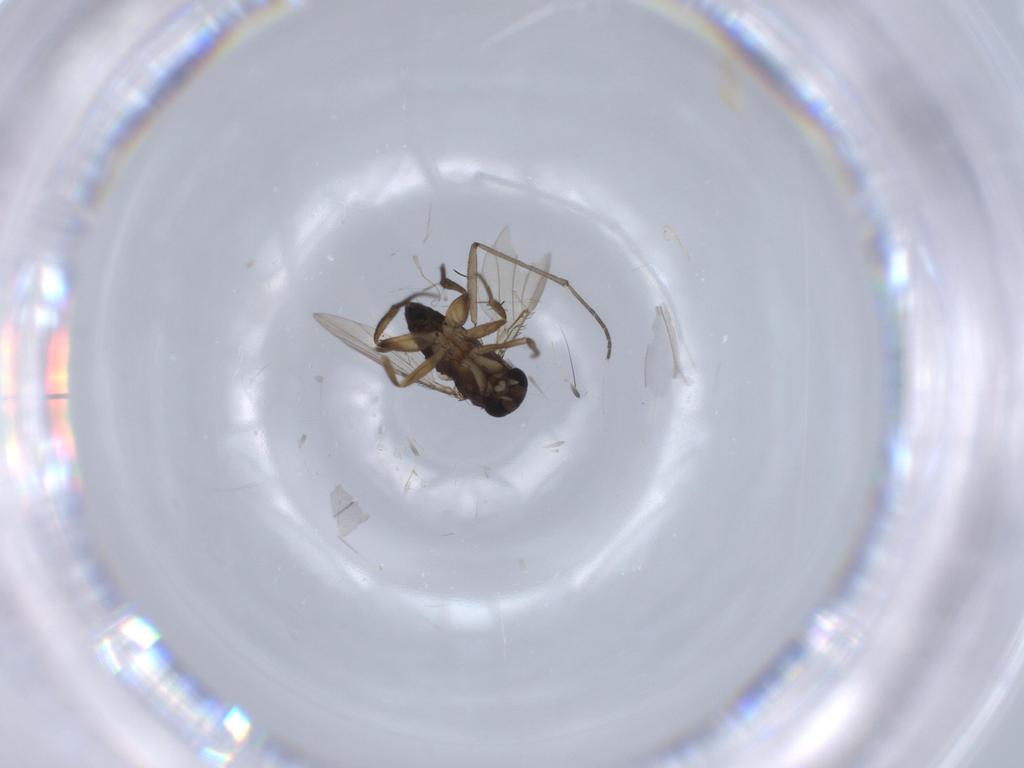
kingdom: Animalia
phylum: Arthropoda
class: Insecta
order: Diptera
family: Sciaridae
